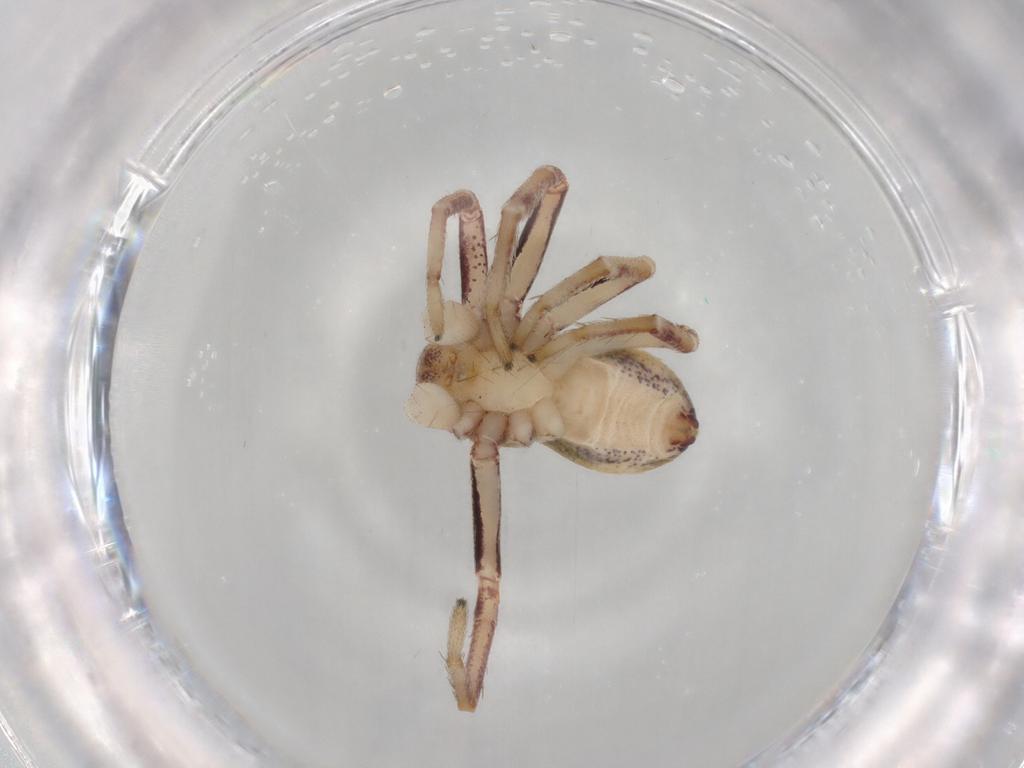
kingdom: Animalia
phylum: Arthropoda
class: Arachnida
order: Araneae
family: Philodromidae
